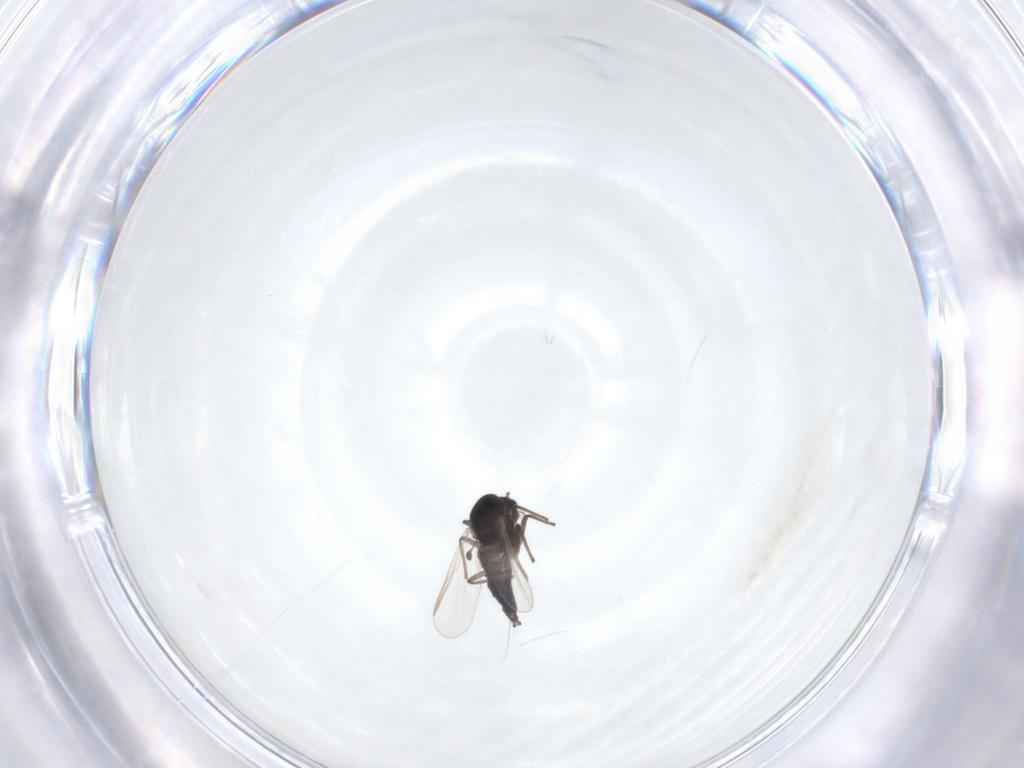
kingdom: Animalia
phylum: Arthropoda
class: Insecta
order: Diptera
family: Chironomidae
